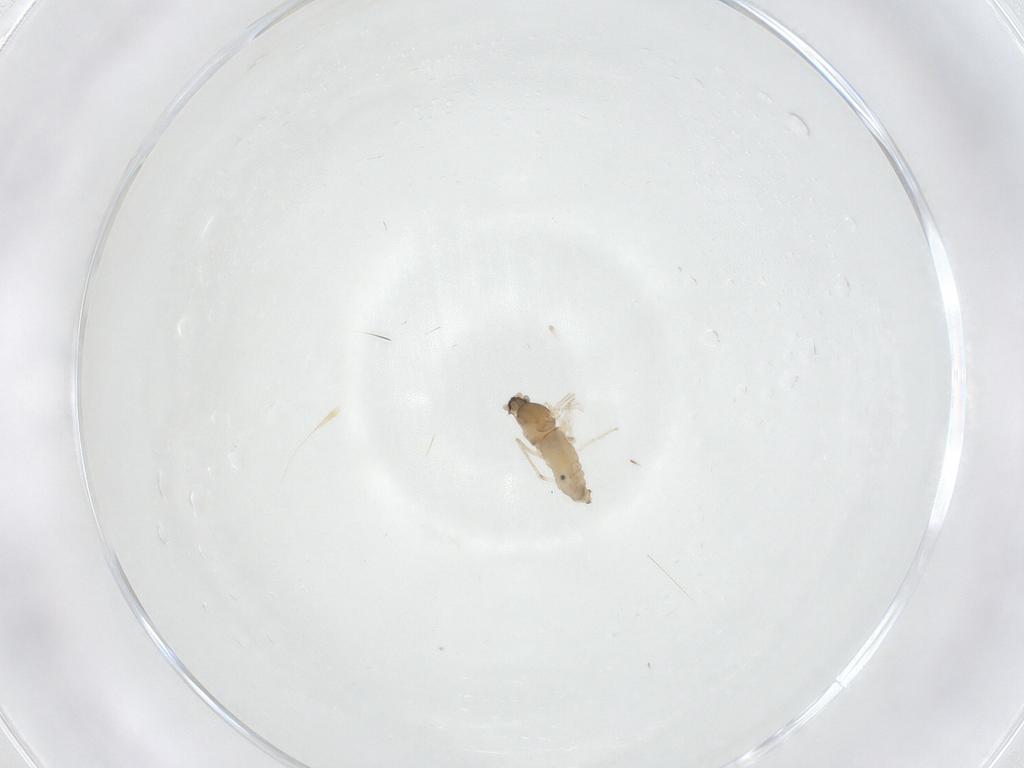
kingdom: Animalia
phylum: Arthropoda
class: Insecta
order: Diptera
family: Cecidomyiidae
